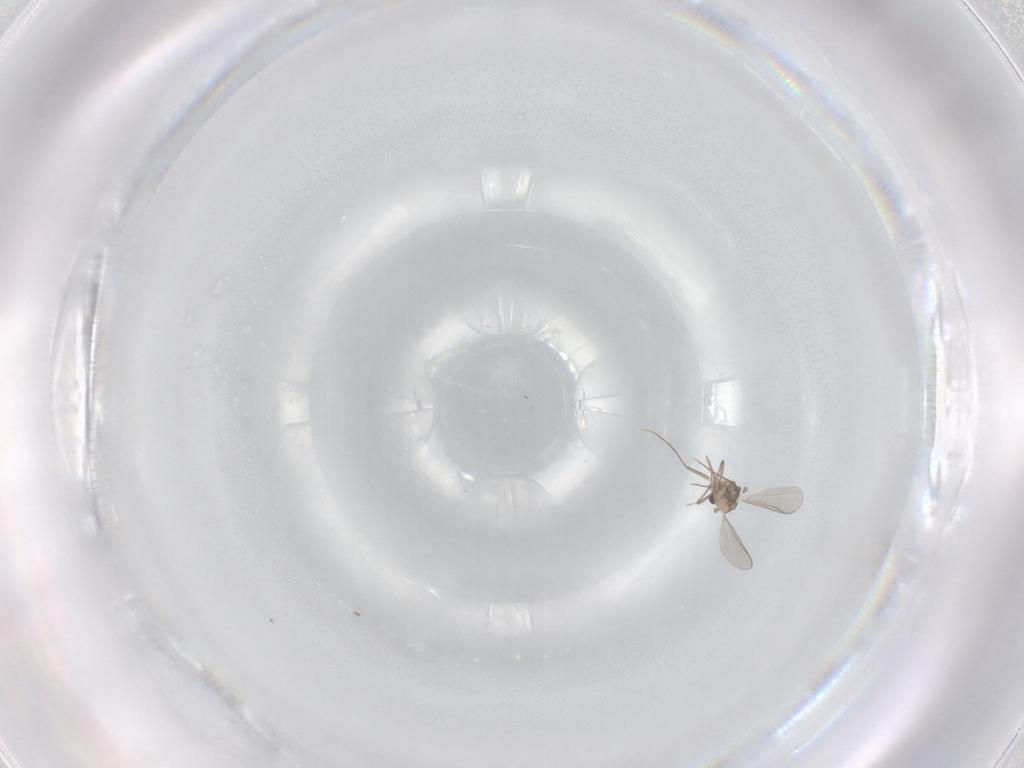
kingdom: Animalia
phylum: Arthropoda
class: Insecta
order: Diptera
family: Chironomidae
